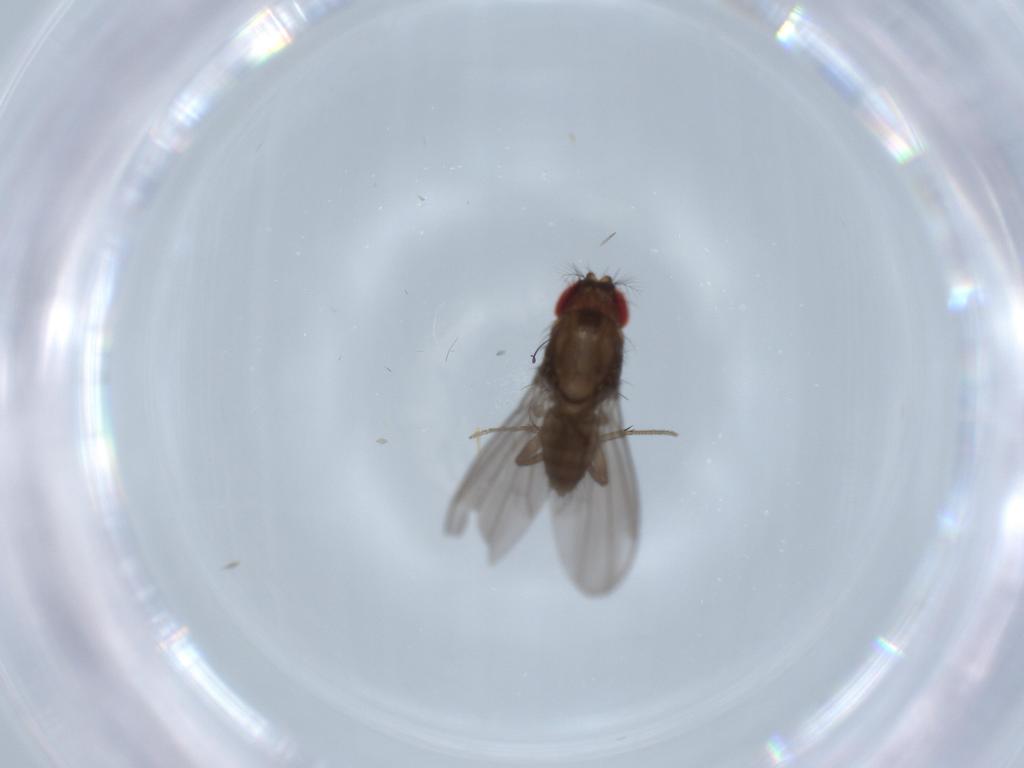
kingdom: Animalia
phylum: Arthropoda
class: Insecta
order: Diptera
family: Drosophilidae
